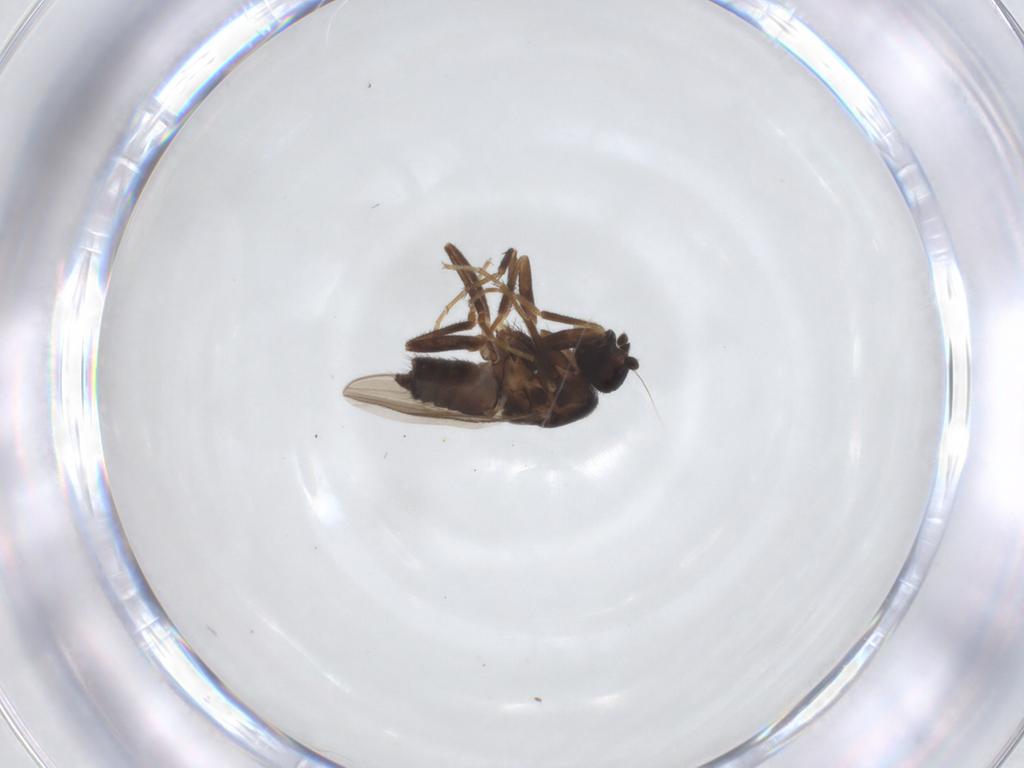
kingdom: Animalia
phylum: Arthropoda
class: Insecta
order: Diptera
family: Sphaeroceridae
